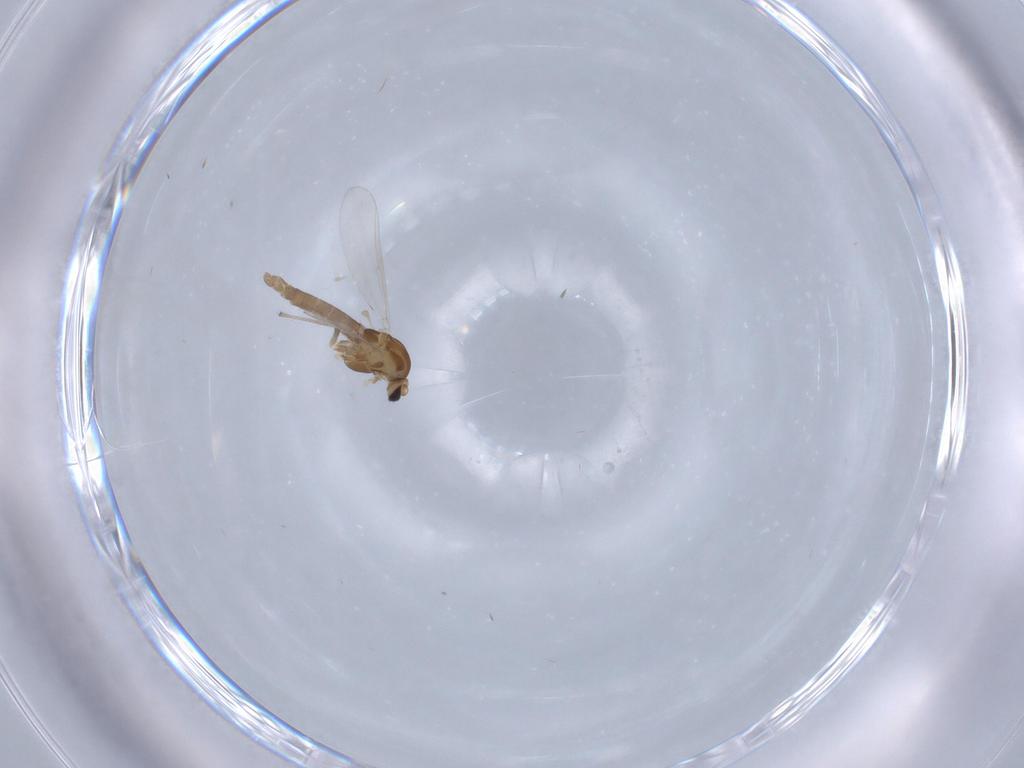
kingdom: Animalia
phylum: Arthropoda
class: Insecta
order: Diptera
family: Chironomidae
